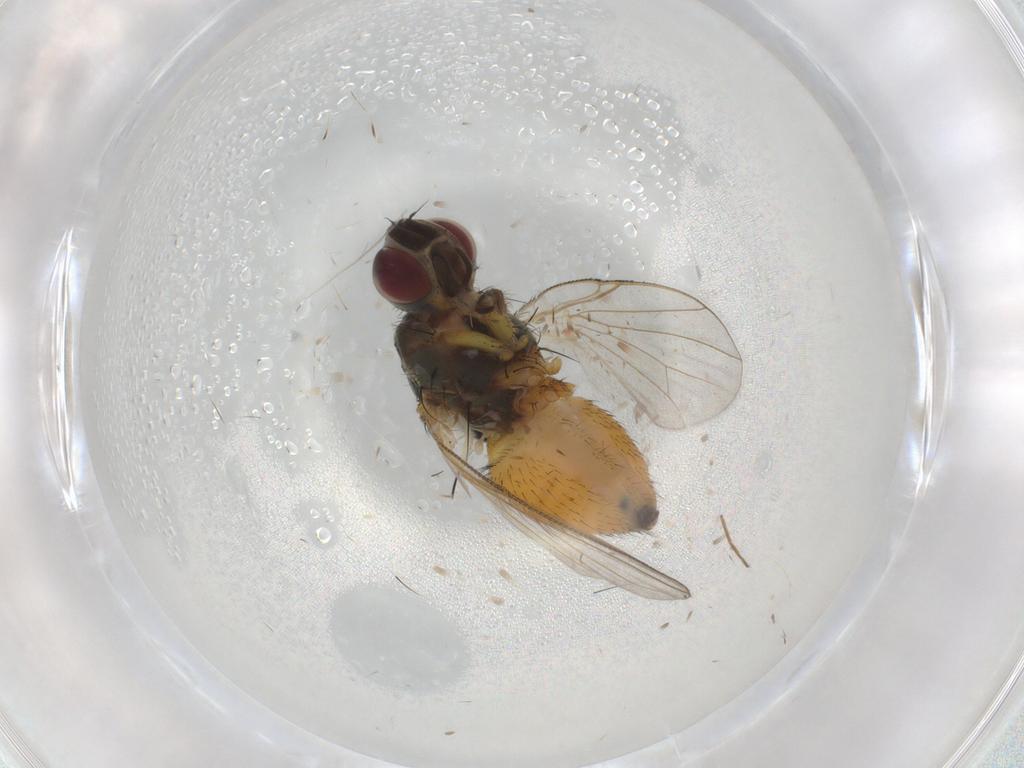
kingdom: Animalia
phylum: Arthropoda
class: Insecta
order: Diptera
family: Muscidae
